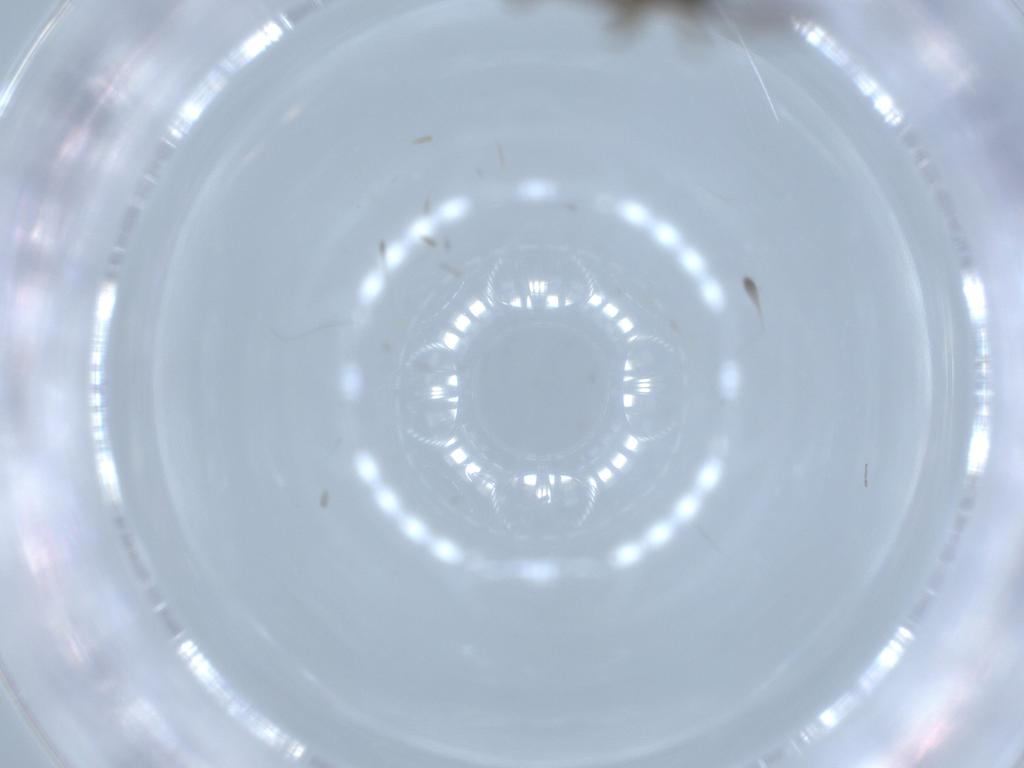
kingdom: Animalia
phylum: Arthropoda
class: Insecta
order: Diptera
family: Sciaridae
